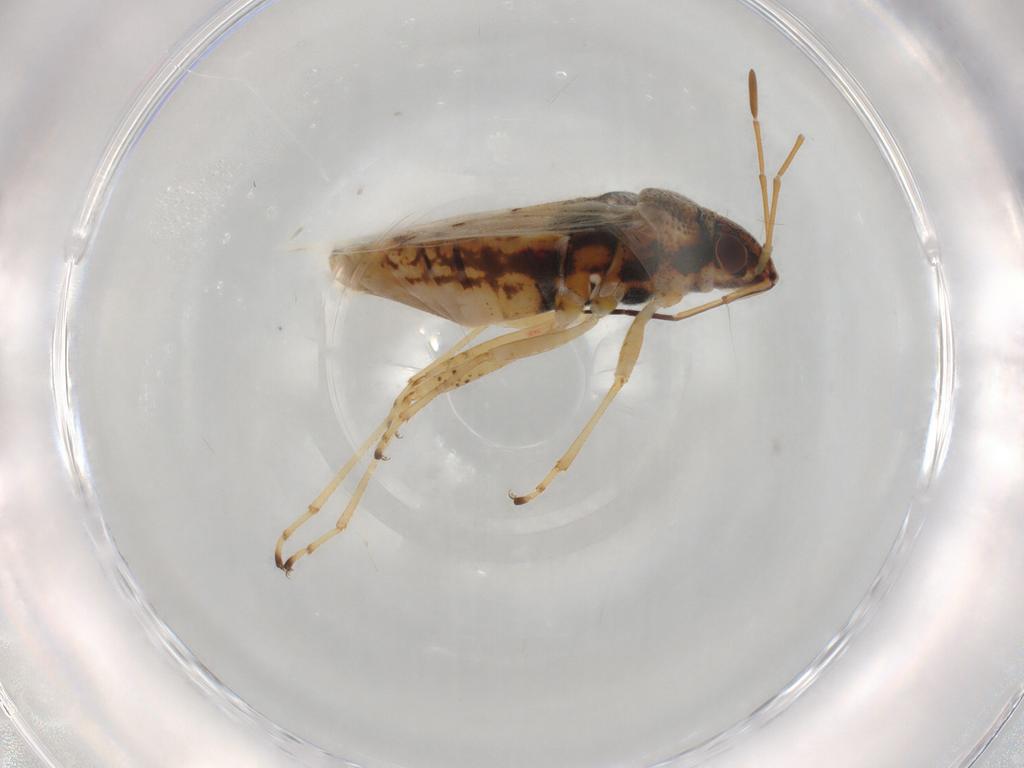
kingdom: Animalia
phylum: Arthropoda
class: Insecta
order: Hemiptera
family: Lygaeidae
